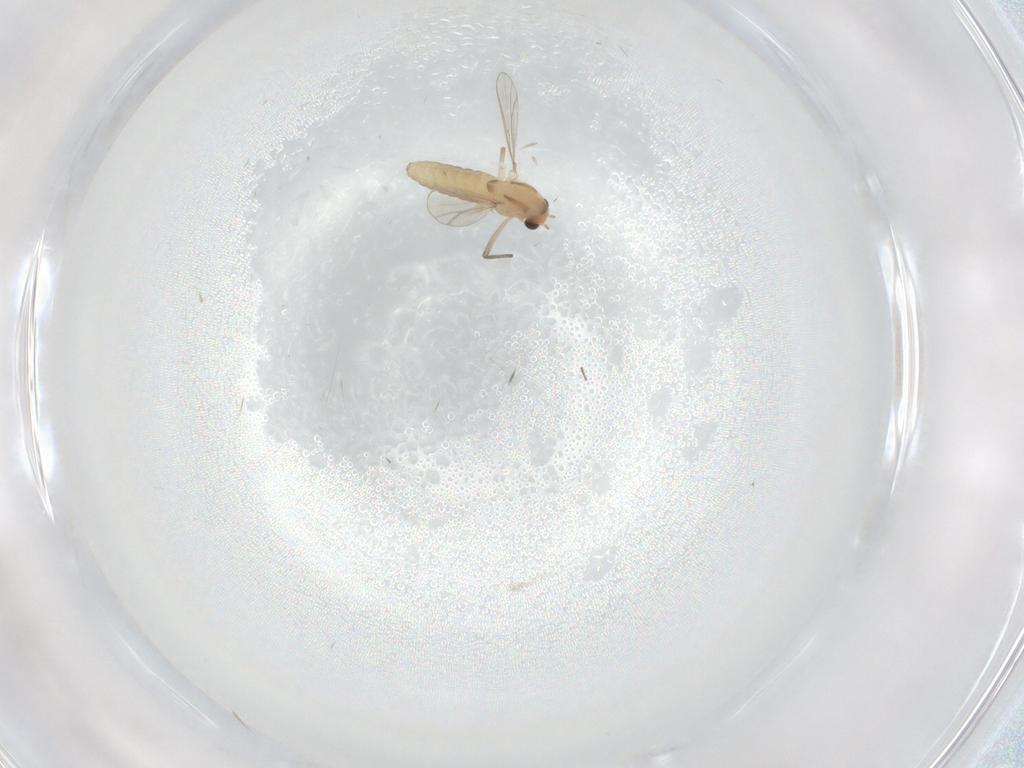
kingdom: Animalia
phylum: Arthropoda
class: Insecta
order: Diptera
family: Chironomidae
